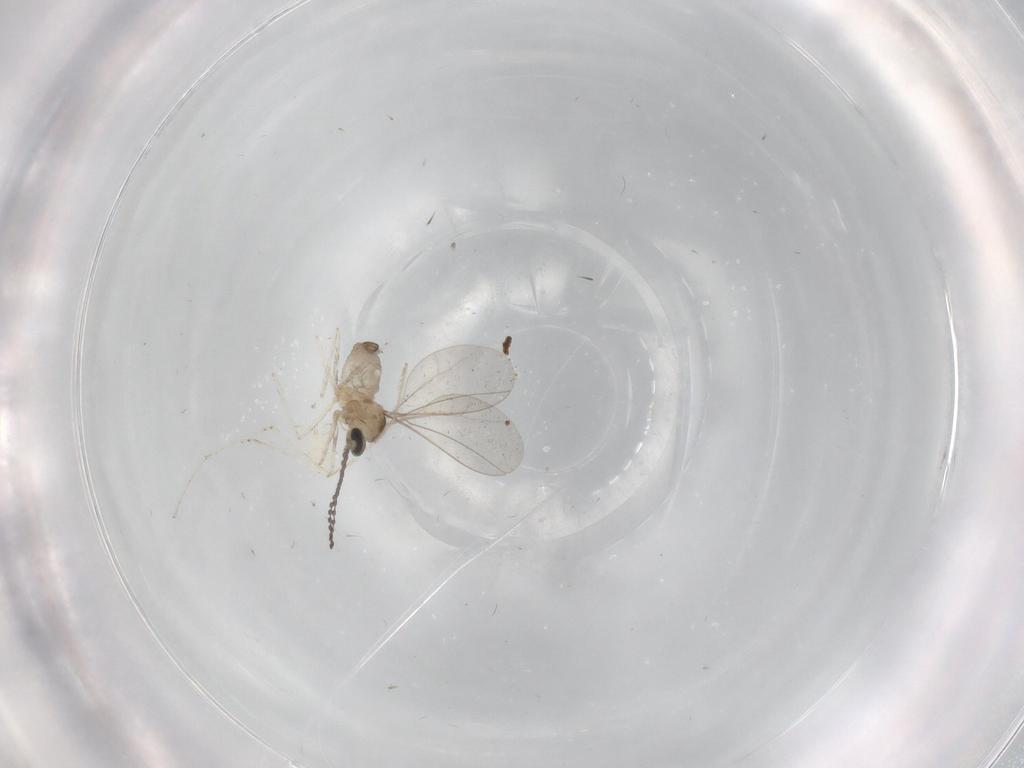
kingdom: Animalia
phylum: Arthropoda
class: Insecta
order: Diptera
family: Chironomidae
